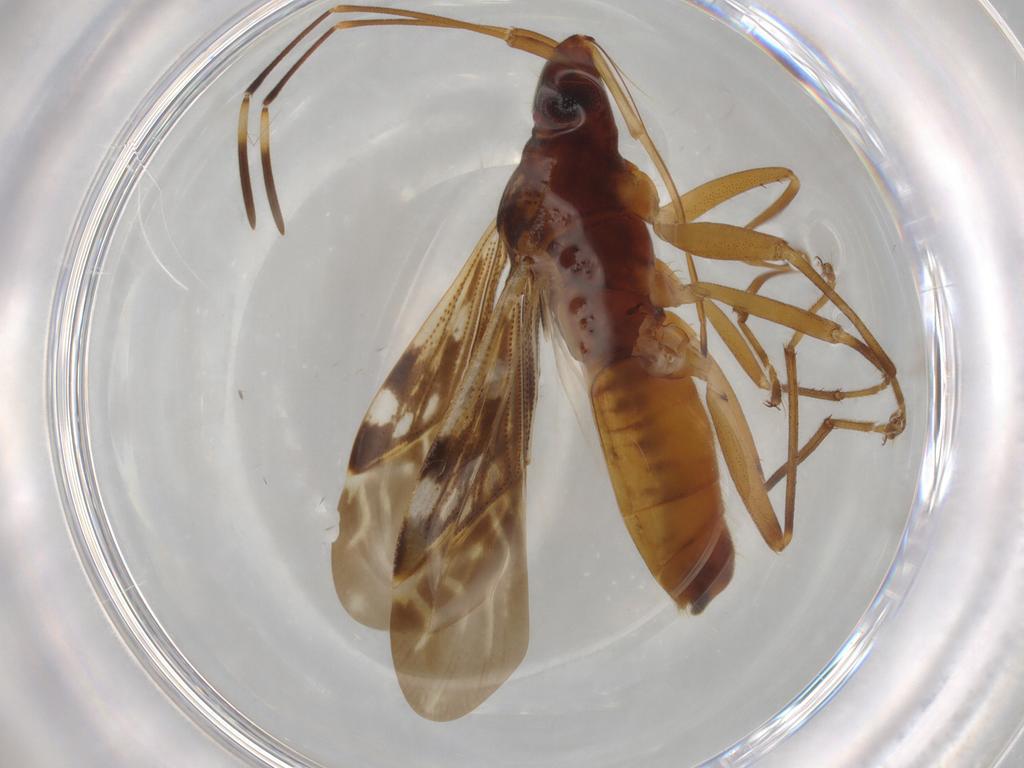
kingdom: Animalia
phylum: Arthropoda
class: Insecta
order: Hemiptera
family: Rhyparochromidae
